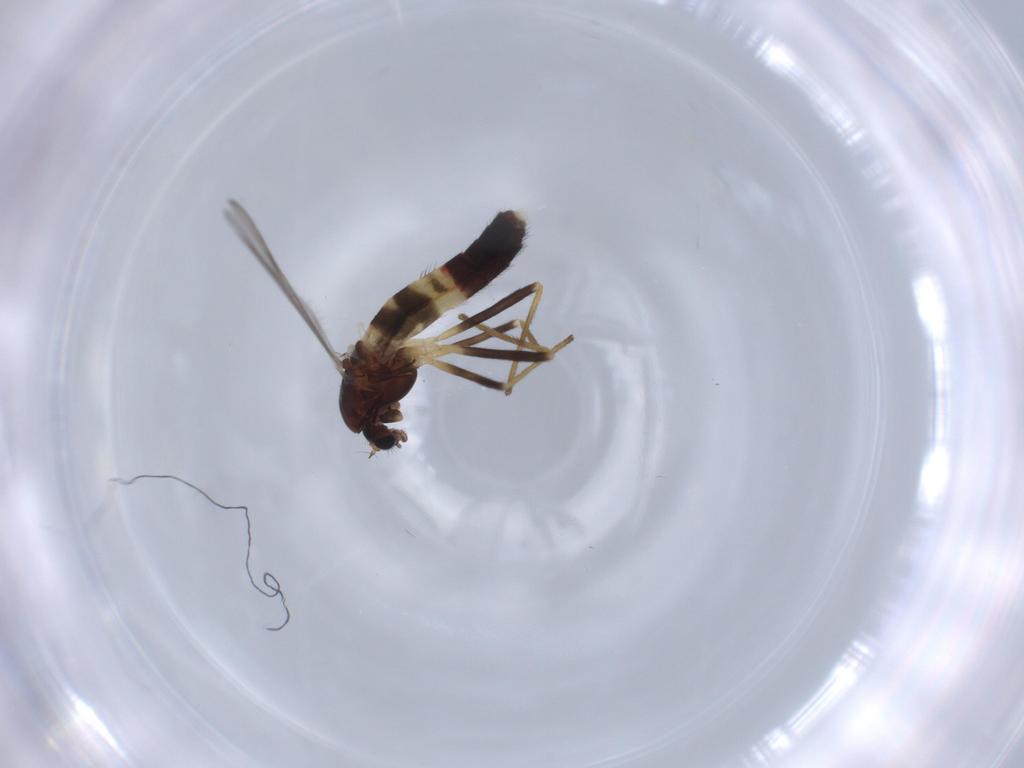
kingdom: Animalia
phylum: Arthropoda
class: Insecta
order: Diptera
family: Chironomidae
